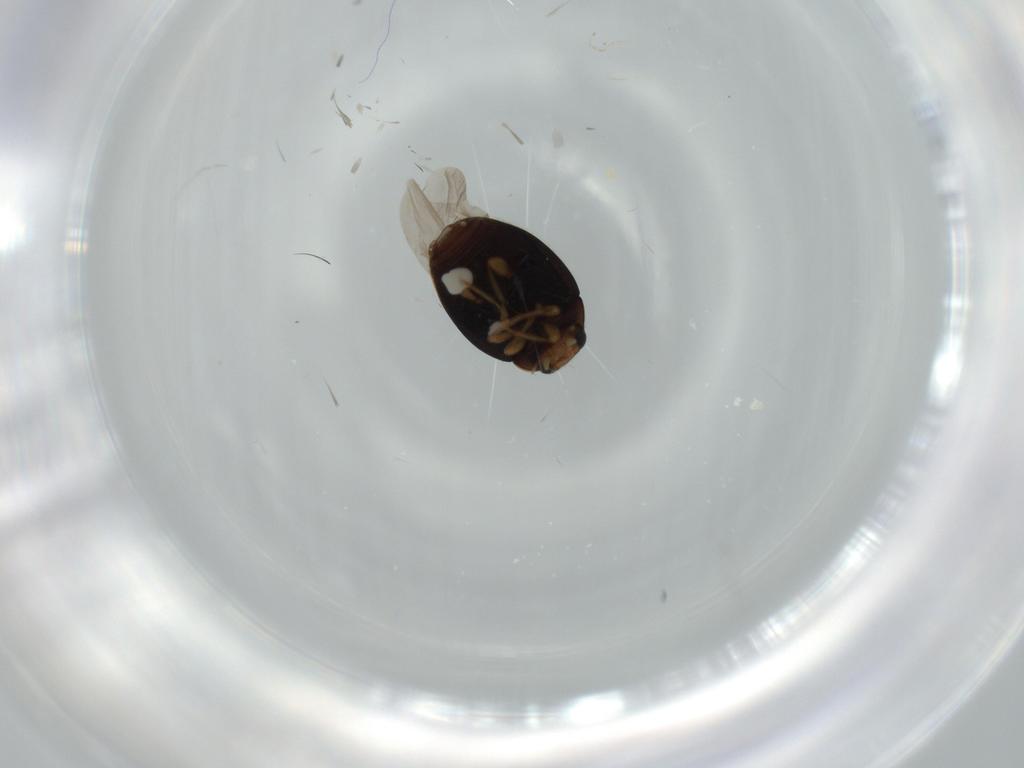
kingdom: Animalia
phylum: Arthropoda
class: Insecta
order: Coleoptera
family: Coccinellidae
